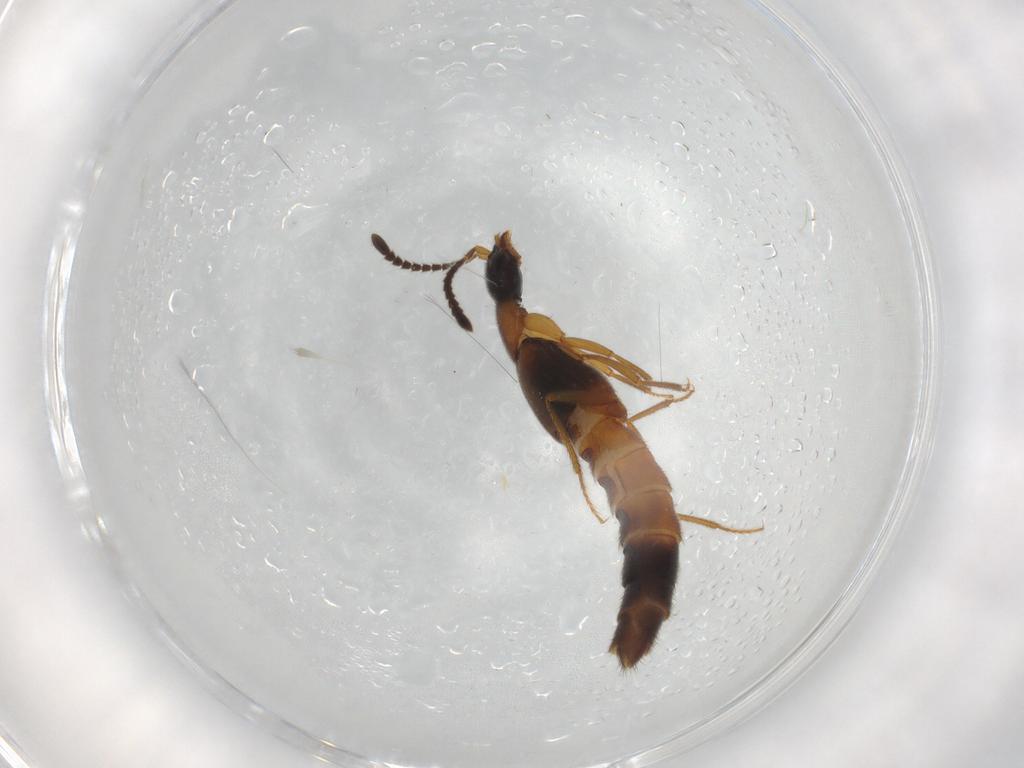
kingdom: Animalia
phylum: Arthropoda
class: Insecta
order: Coleoptera
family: Staphylinidae
